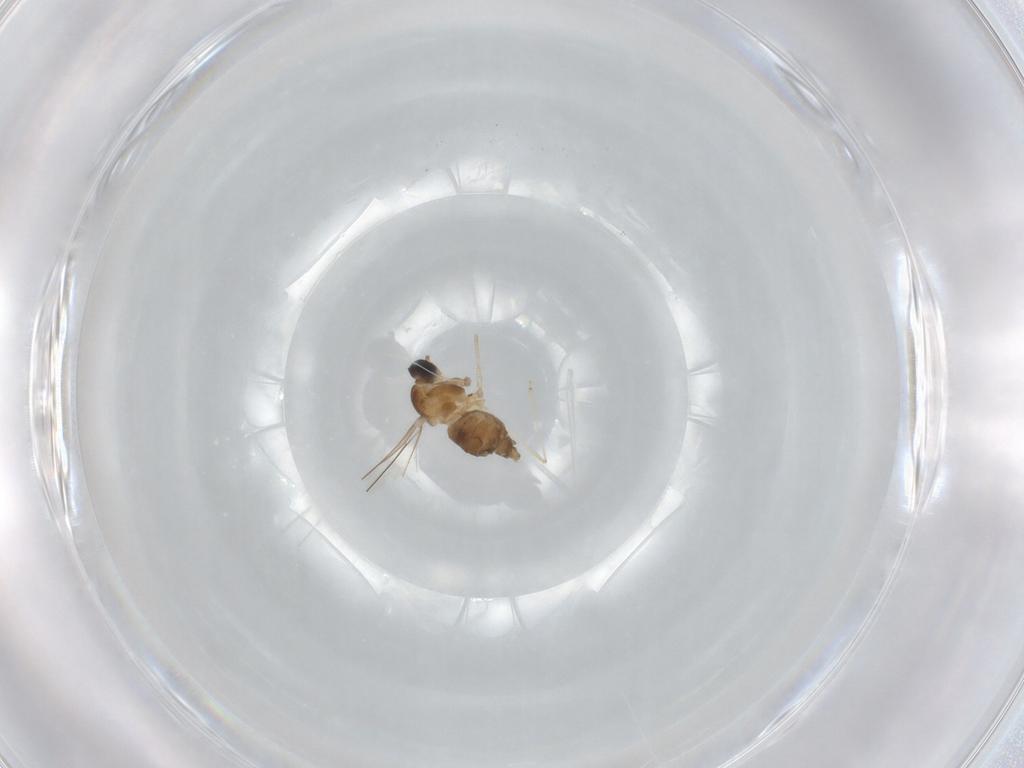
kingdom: Animalia
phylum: Arthropoda
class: Insecta
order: Diptera
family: Cecidomyiidae
